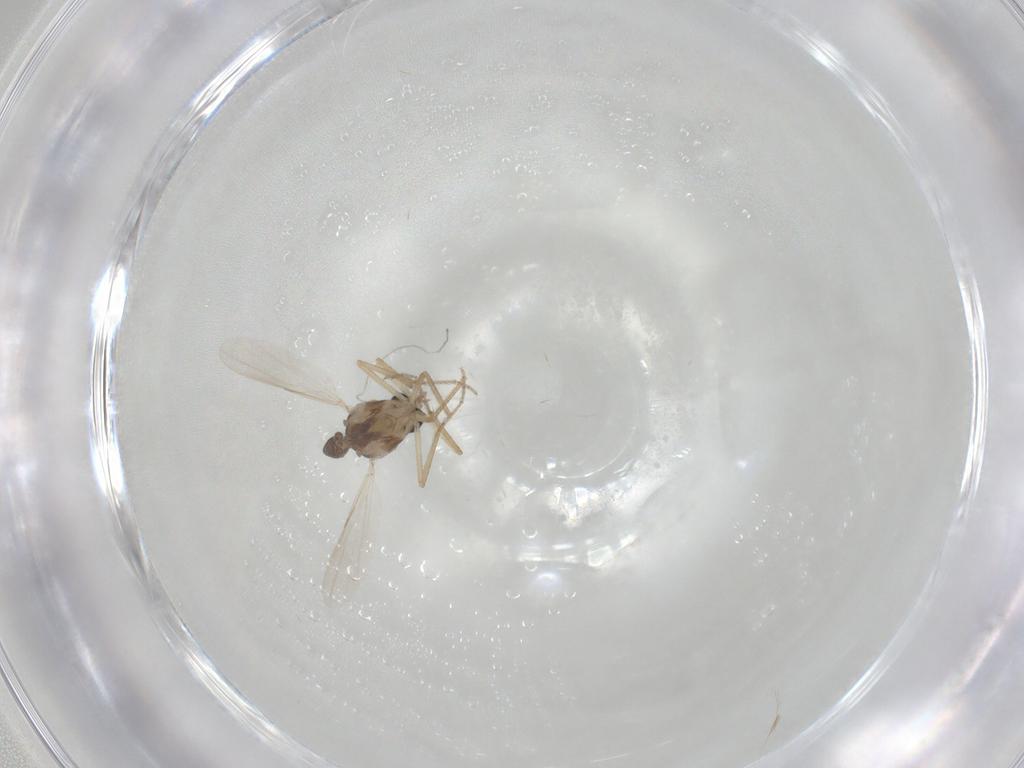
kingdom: Animalia
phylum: Arthropoda
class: Insecta
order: Diptera
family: Ceratopogonidae
